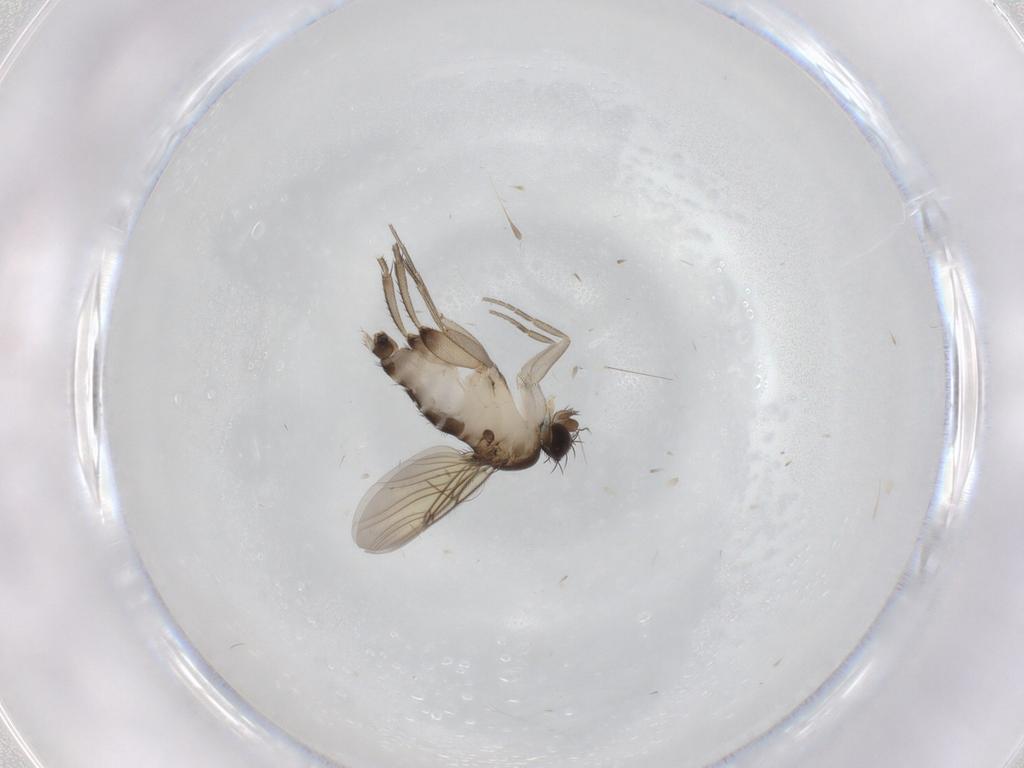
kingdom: Animalia
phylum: Arthropoda
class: Insecta
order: Diptera
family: Phoridae
